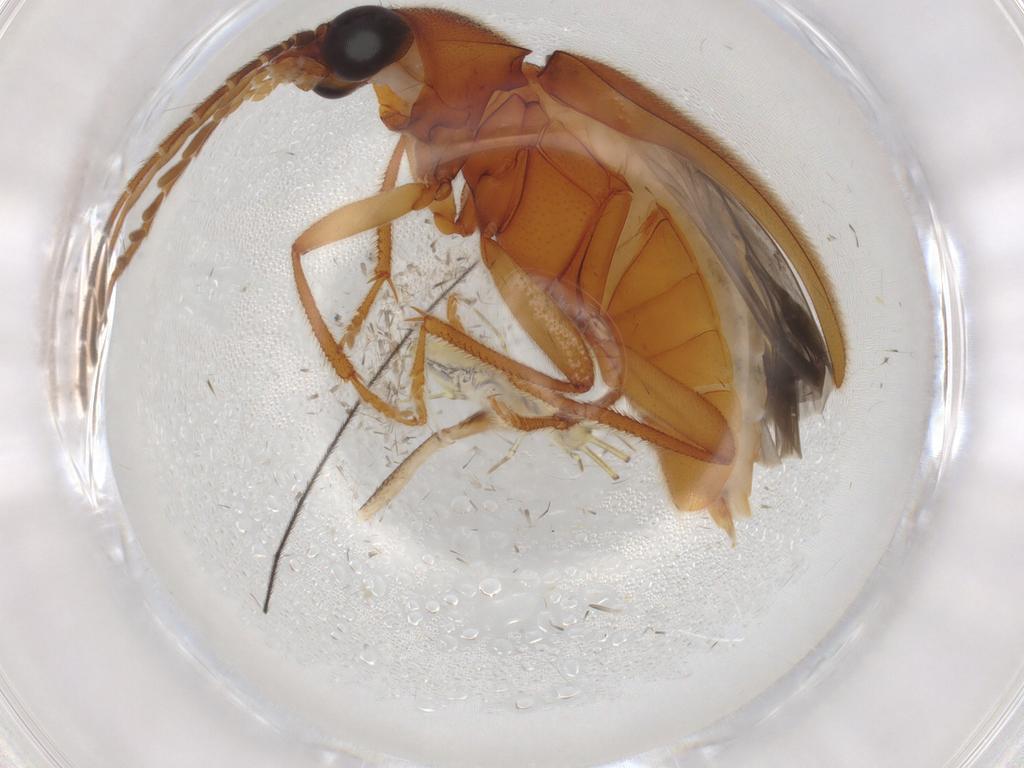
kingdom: Animalia
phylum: Arthropoda
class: Insecta
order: Coleoptera
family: Ptilodactylidae
